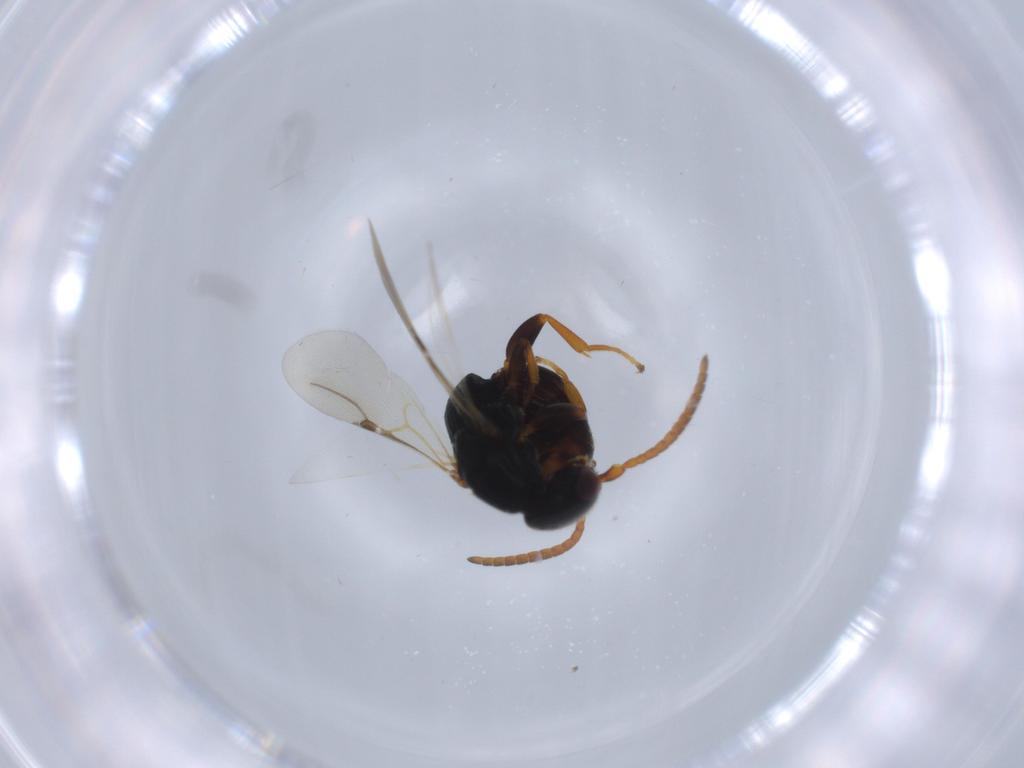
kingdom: Animalia
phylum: Arthropoda
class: Insecta
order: Hymenoptera
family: Bethylidae
